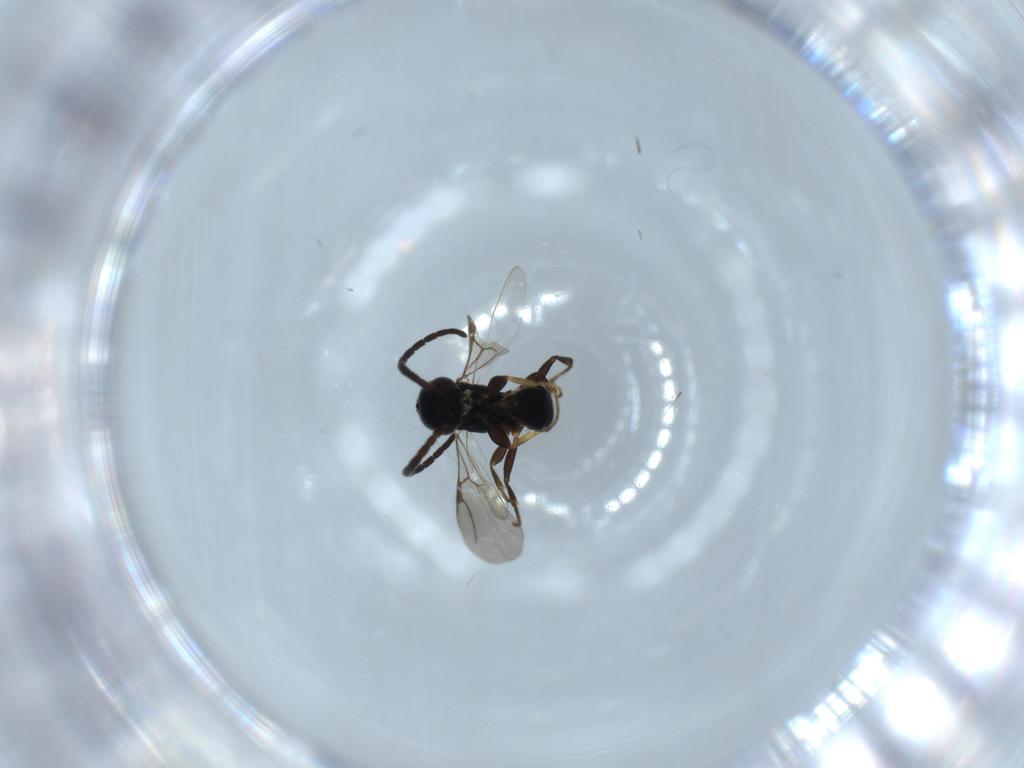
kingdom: Animalia
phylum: Arthropoda
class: Insecta
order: Hymenoptera
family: Bethylidae
